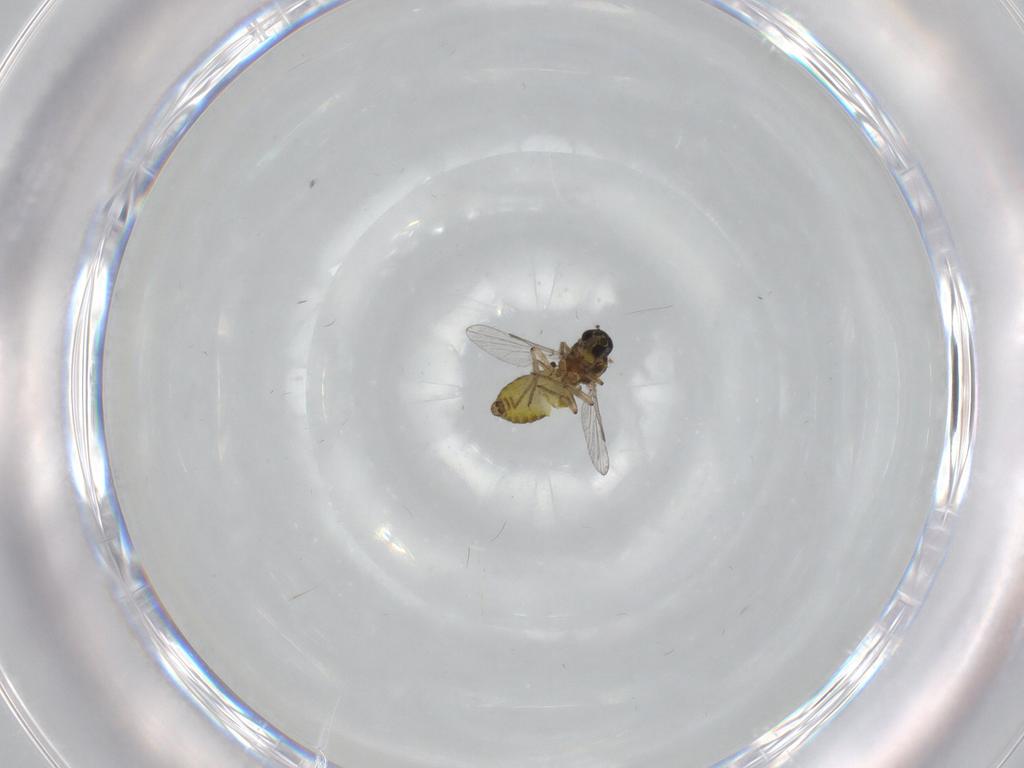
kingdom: Animalia
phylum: Arthropoda
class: Insecta
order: Diptera
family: Ceratopogonidae
